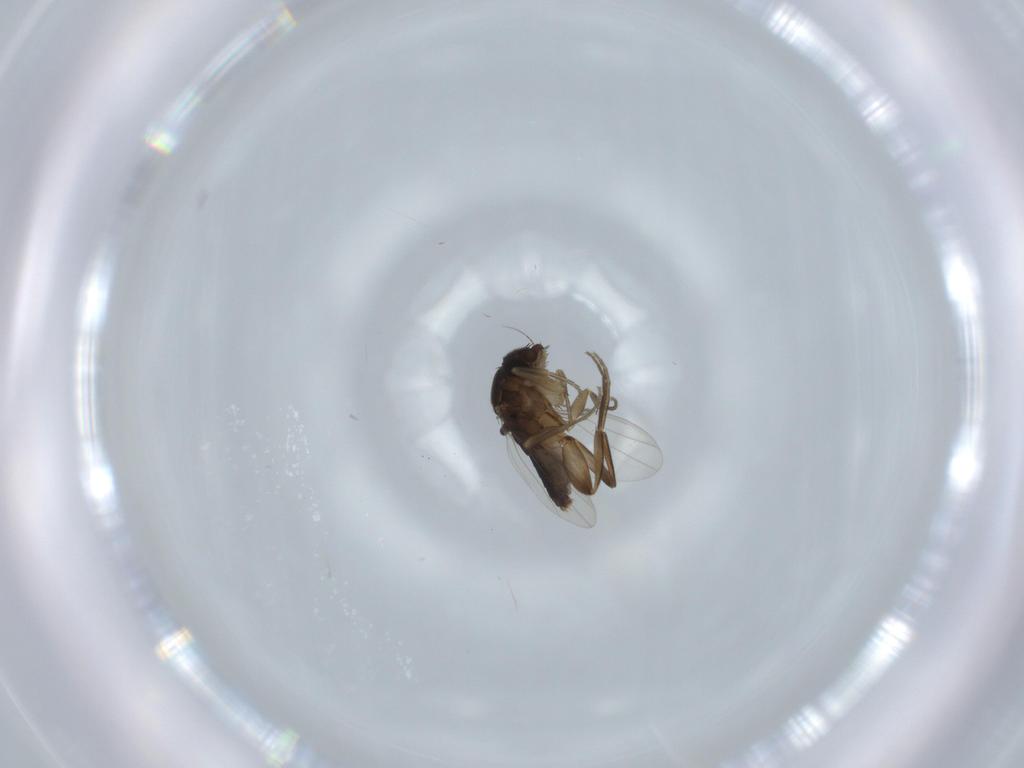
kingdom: Animalia
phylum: Arthropoda
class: Insecta
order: Diptera
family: Phoridae
